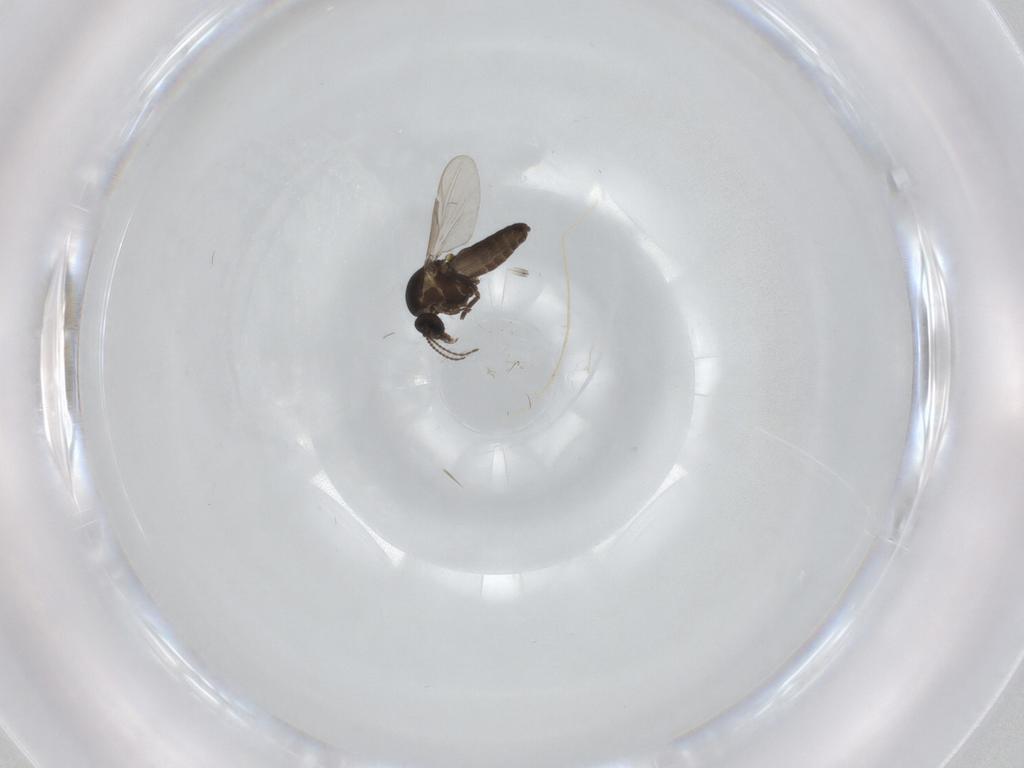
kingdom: Animalia
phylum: Arthropoda
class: Insecta
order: Diptera
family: Ceratopogonidae
